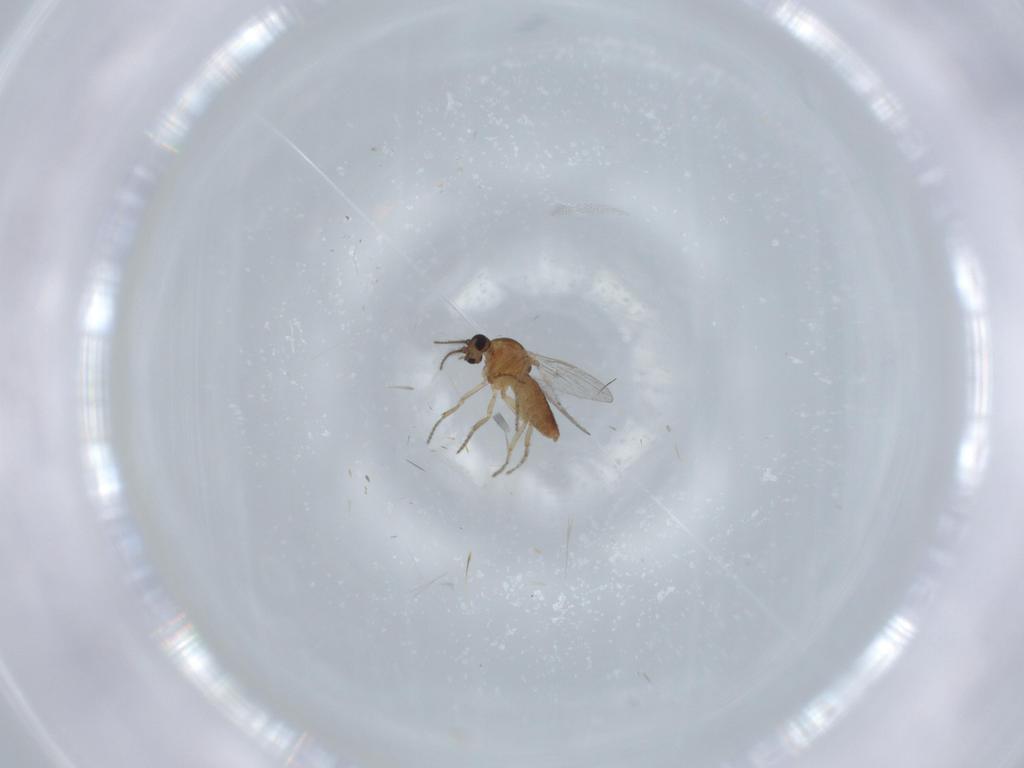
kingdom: Animalia
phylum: Arthropoda
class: Insecta
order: Diptera
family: Ceratopogonidae
